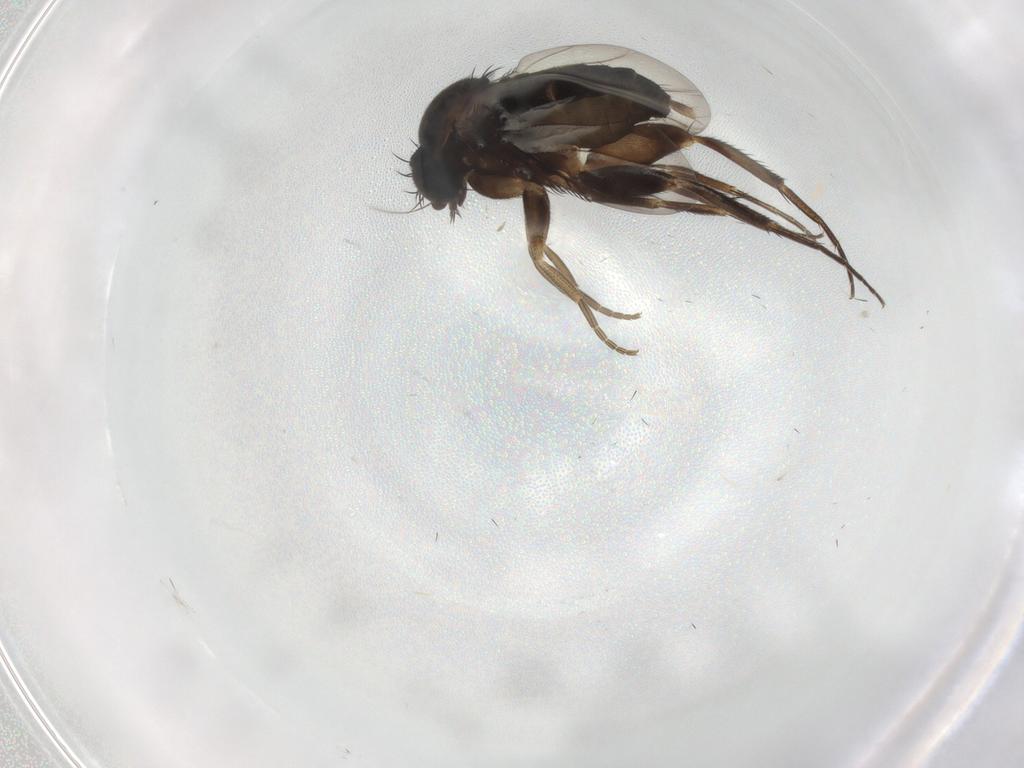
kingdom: Animalia
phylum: Arthropoda
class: Insecta
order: Diptera
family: Phoridae
